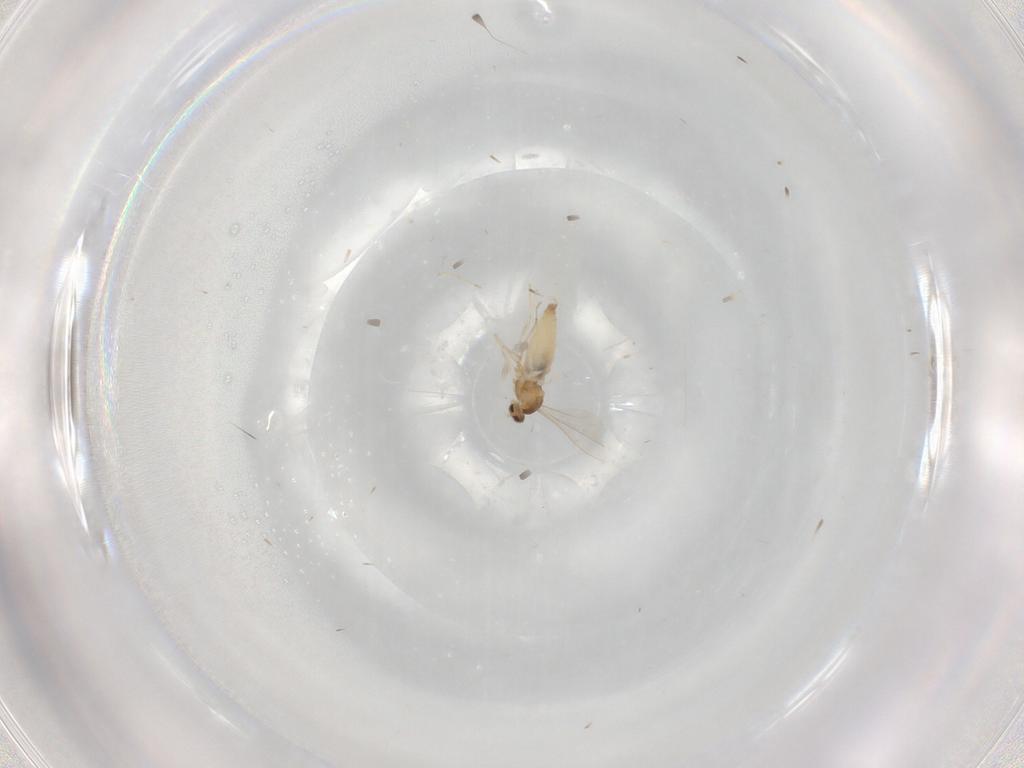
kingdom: Animalia
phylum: Arthropoda
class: Insecta
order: Diptera
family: Cecidomyiidae
